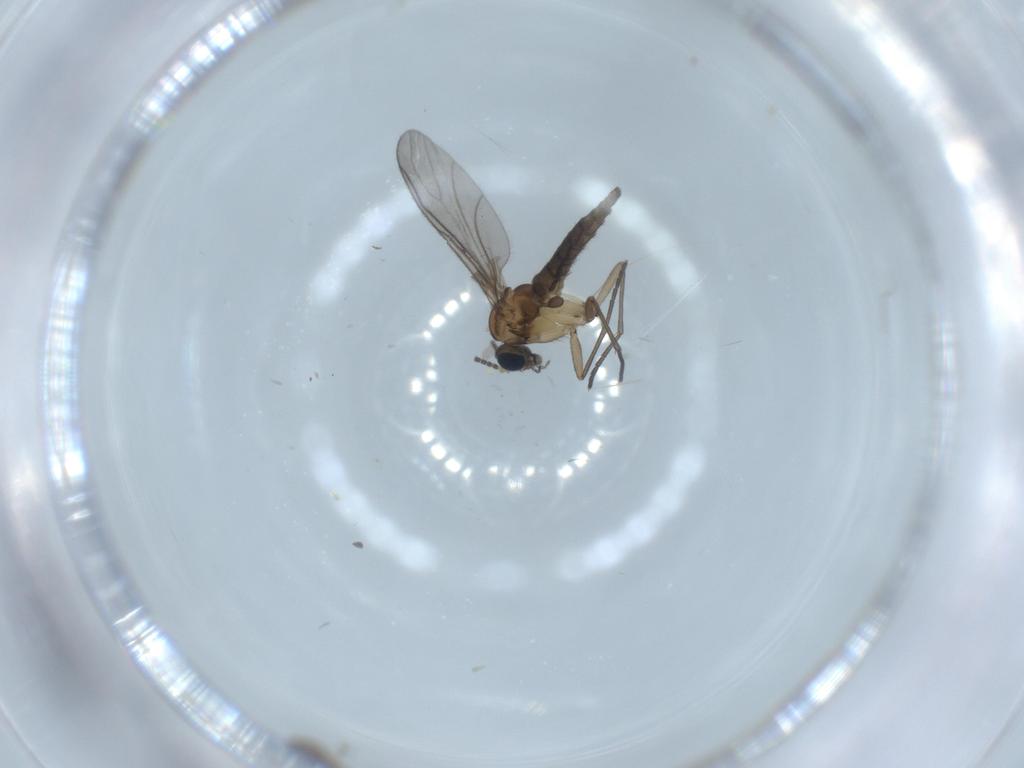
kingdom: Animalia
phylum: Arthropoda
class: Insecta
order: Diptera
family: Sciaridae
